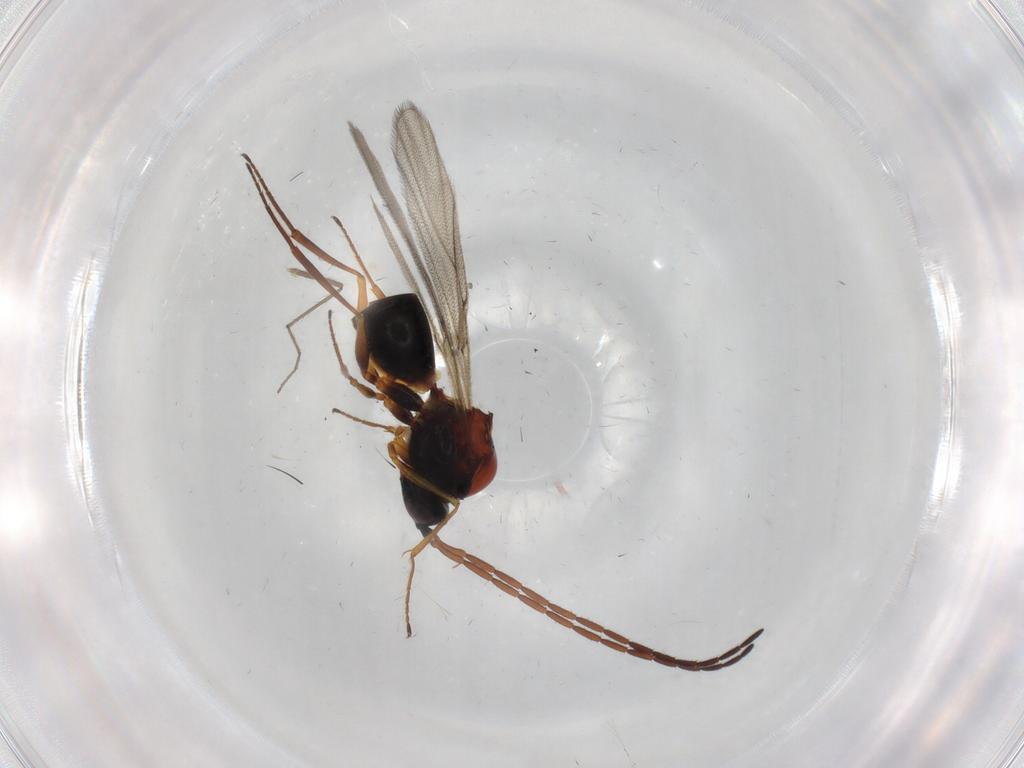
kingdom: Animalia
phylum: Arthropoda
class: Insecta
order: Hymenoptera
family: Figitidae
